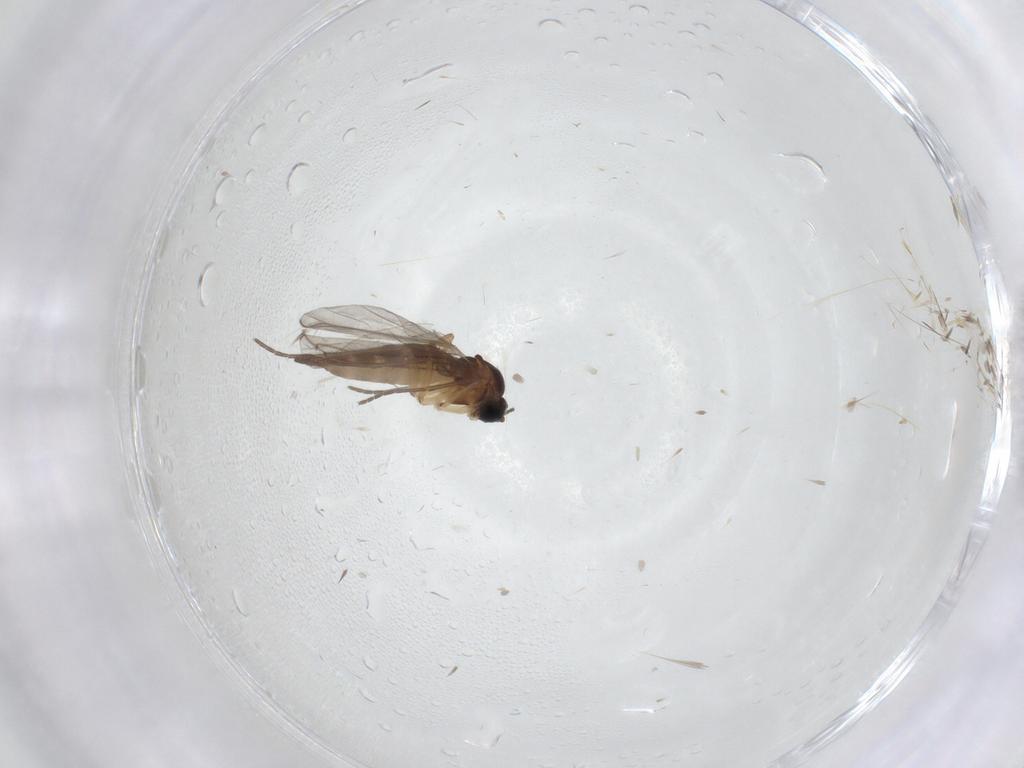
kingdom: Animalia
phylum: Arthropoda
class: Insecta
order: Diptera
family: Sciaridae
